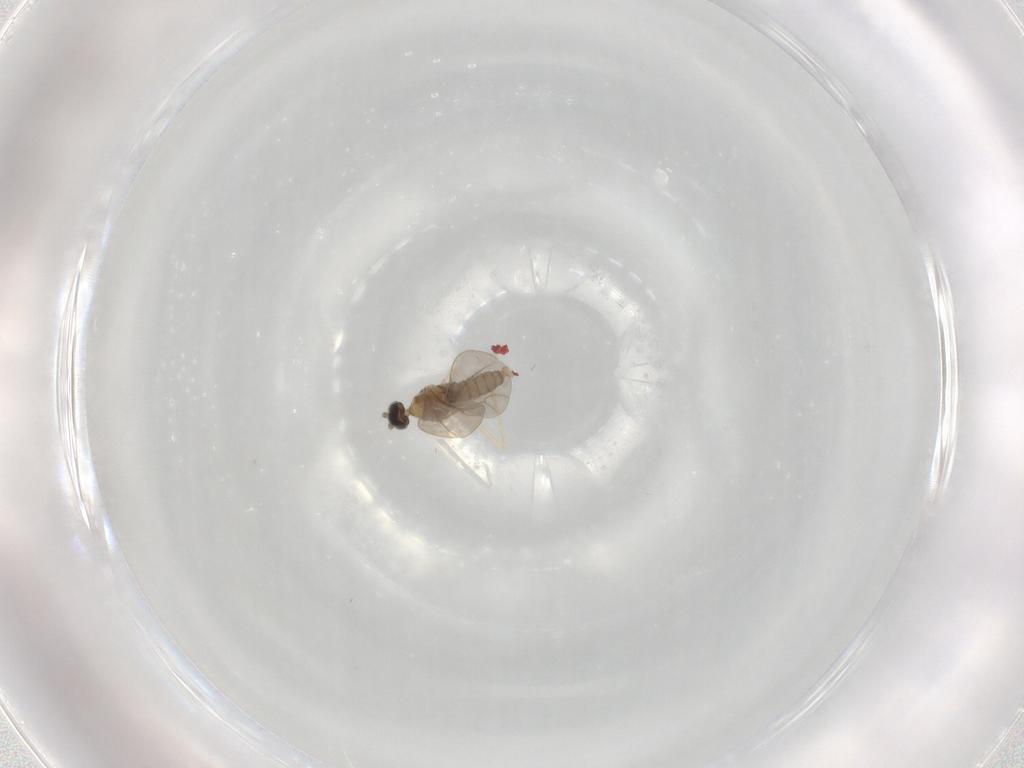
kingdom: Animalia
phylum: Arthropoda
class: Insecta
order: Diptera
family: Cecidomyiidae
